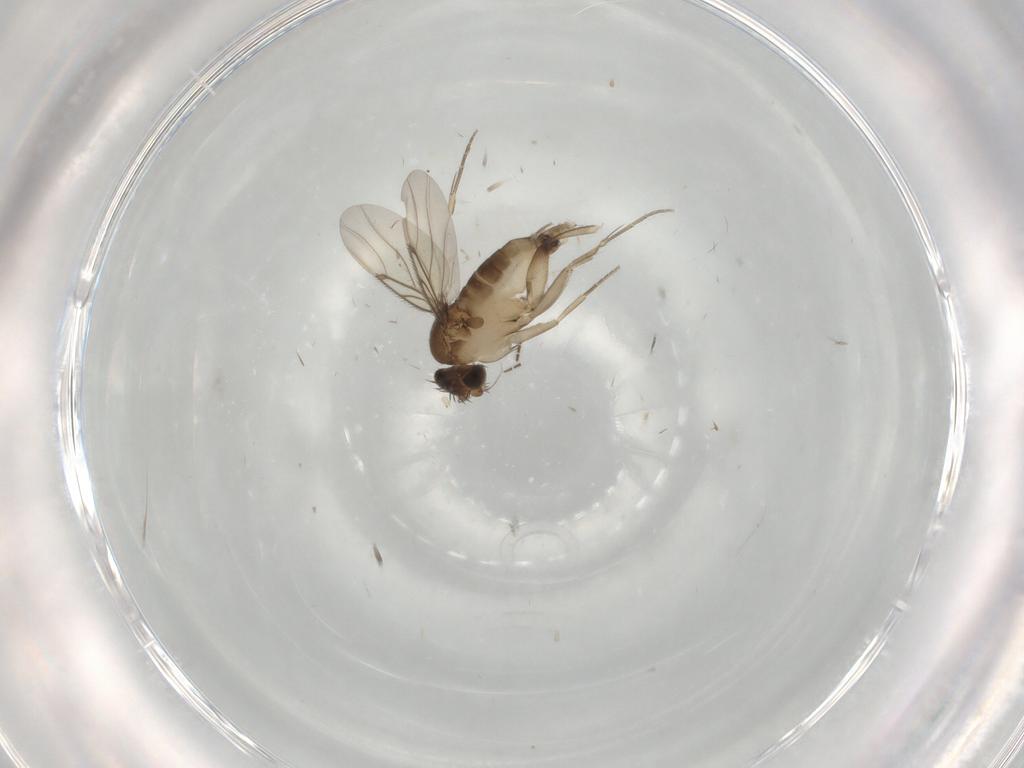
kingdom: Animalia
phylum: Arthropoda
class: Insecta
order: Diptera
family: Phoridae
